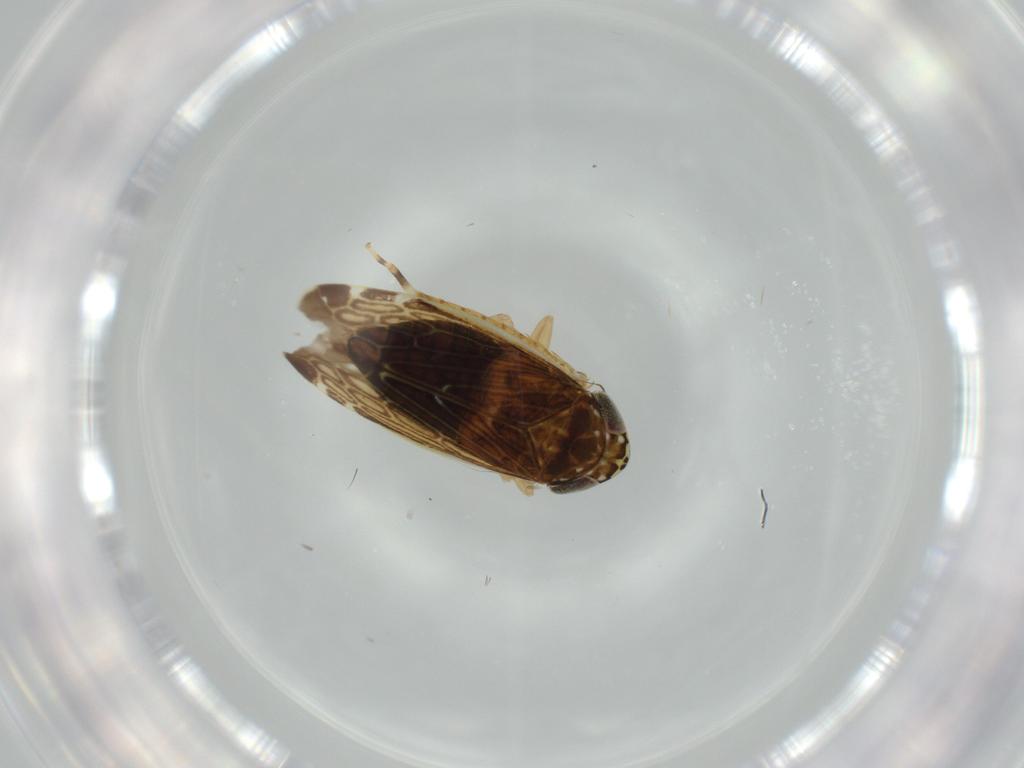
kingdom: Animalia
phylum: Arthropoda
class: Insecta
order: Hemiptera
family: Cicadellidae
